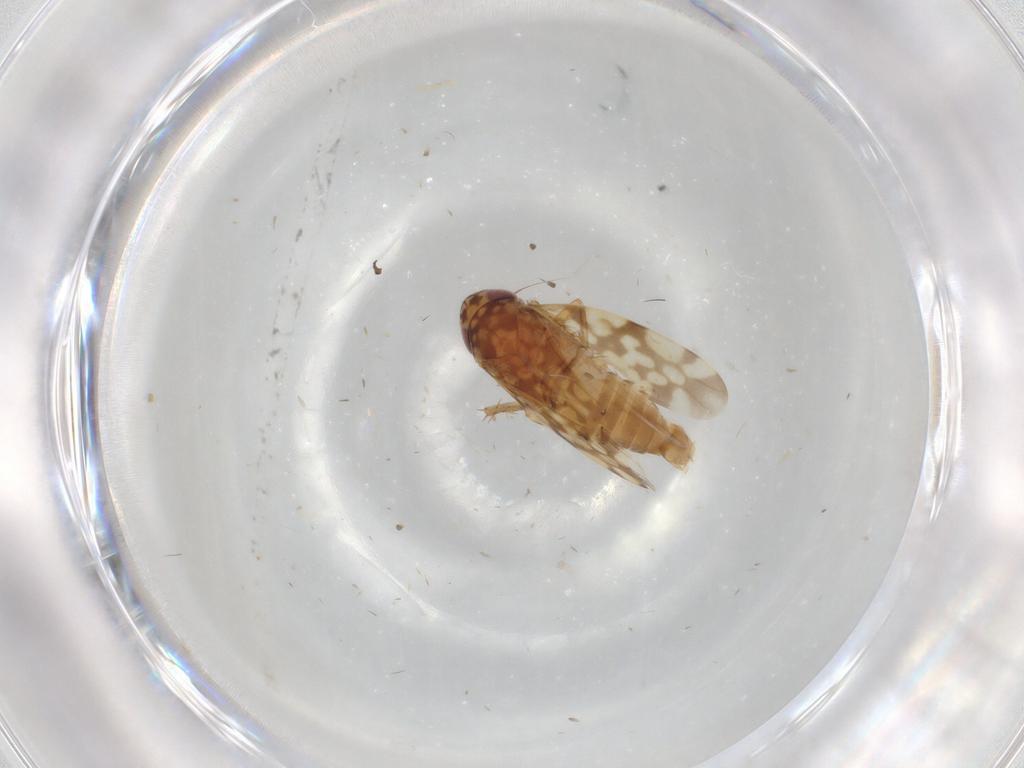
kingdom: Animalia
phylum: Arthropoda
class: Insecta
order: Hemiptera
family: Cicadellidae
